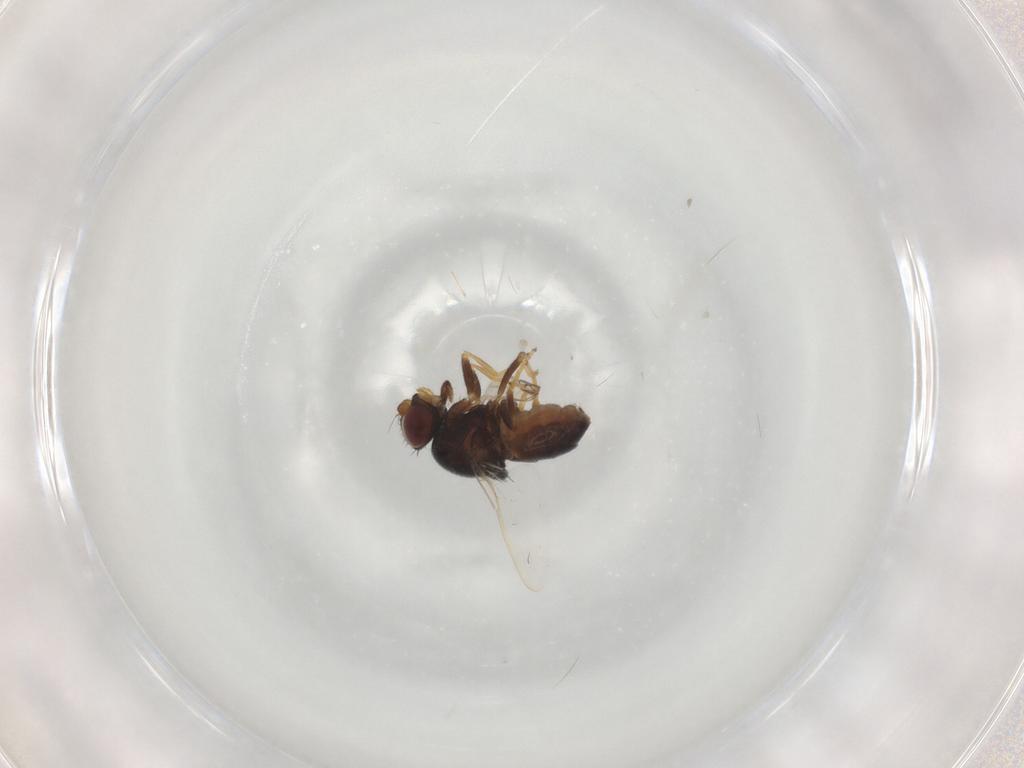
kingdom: Animalia
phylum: Arthropoda
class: Insecta
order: Diptera
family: Chloropidae
